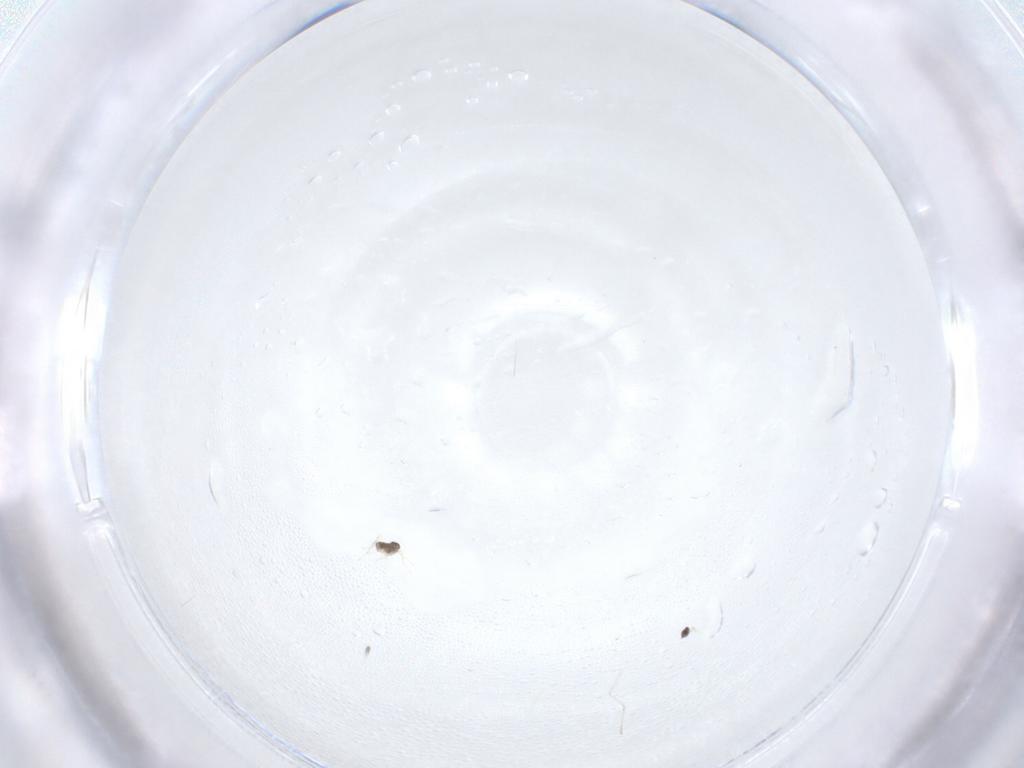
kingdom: Animalia
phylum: Arthropoda
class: Insecta
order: Diptera
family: Cecidomyiidae
